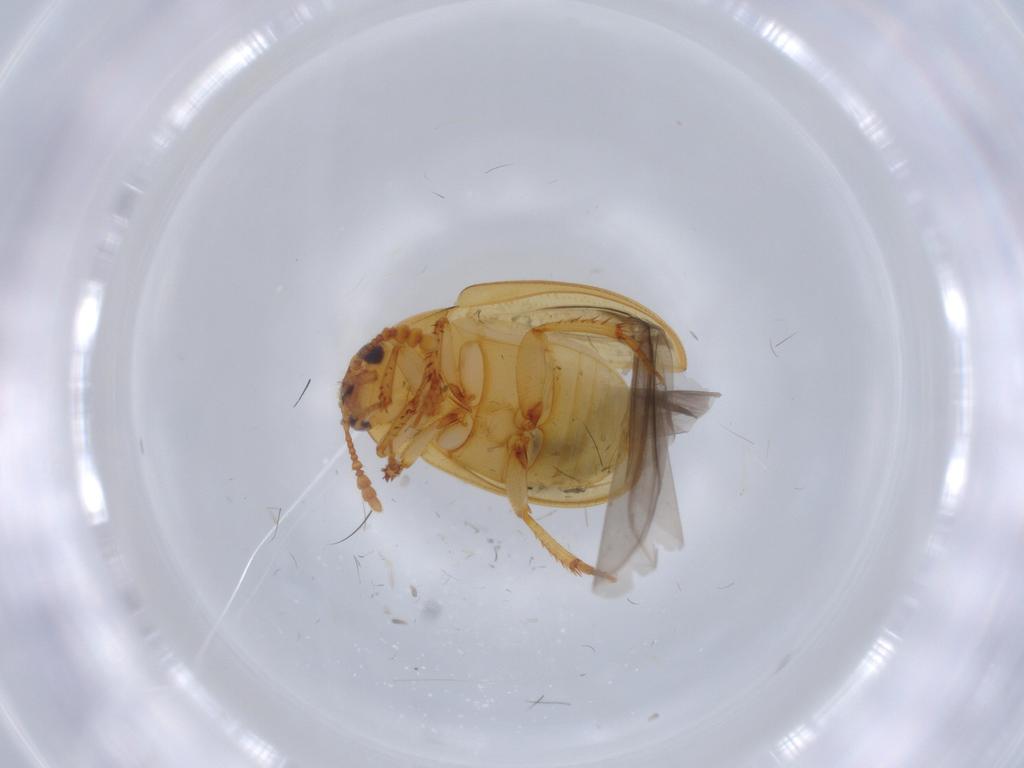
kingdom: Animalia
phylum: Arthropoda
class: Insecta
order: Coleoptera
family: Leiodidae
